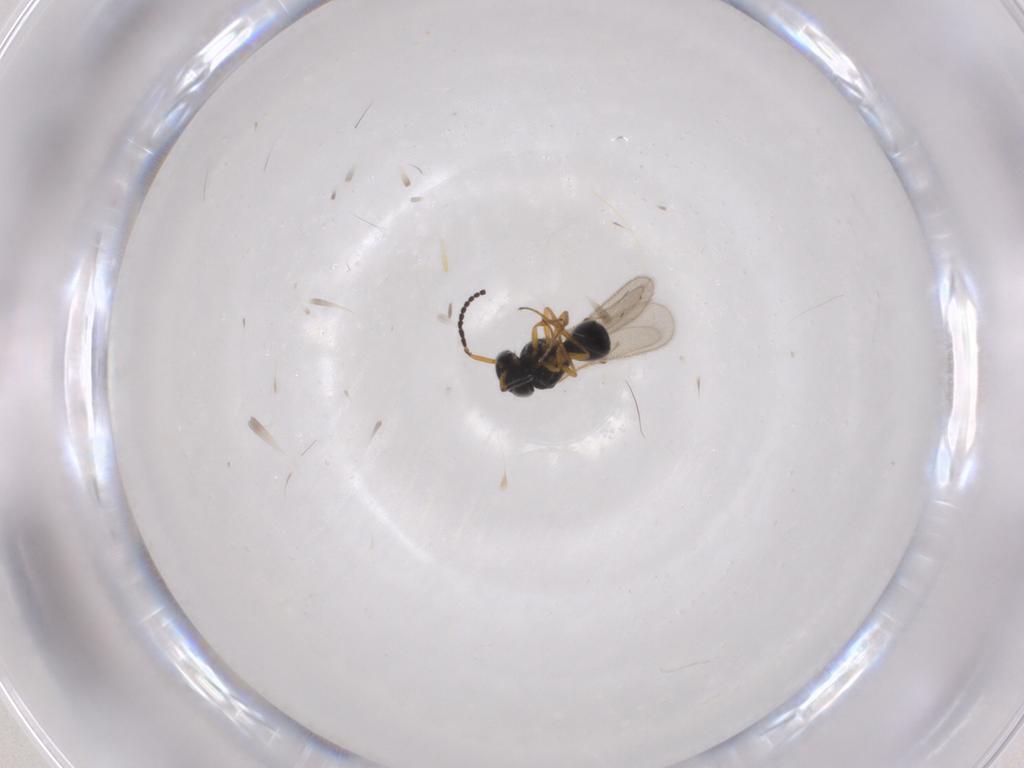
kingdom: Animalia
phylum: Arthropoda
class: Insecta
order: Hymenoptera
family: Scelionidae
